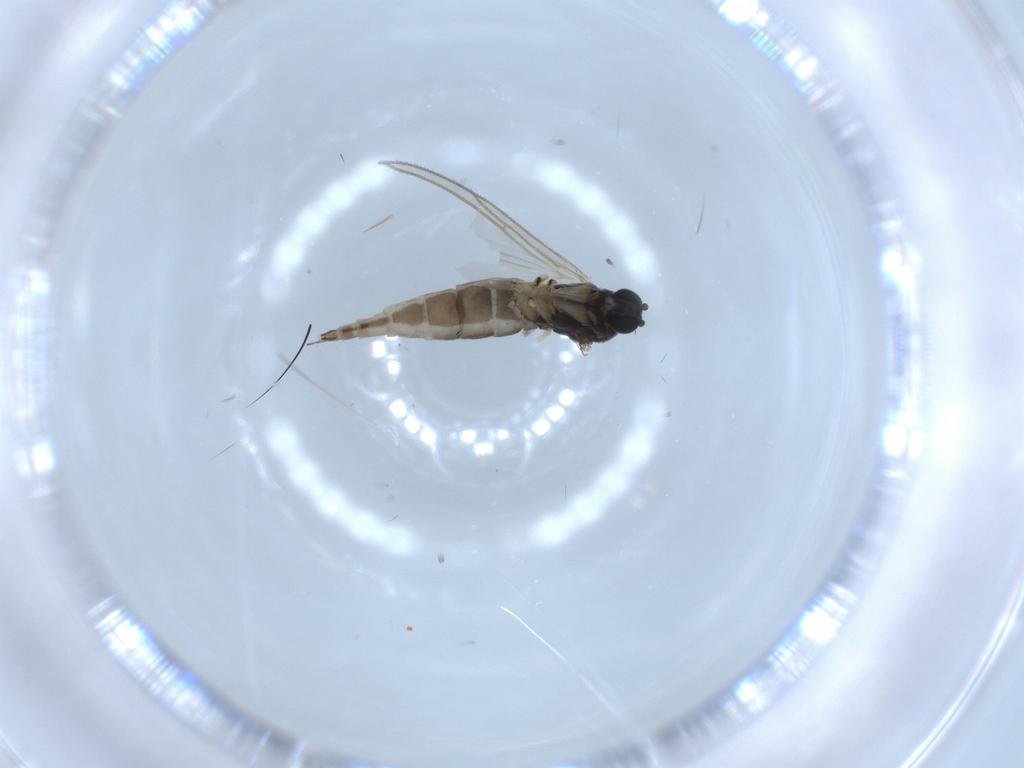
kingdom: Animalia
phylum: Arthropoda
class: Insecta
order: Diptera
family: Sciaridae
